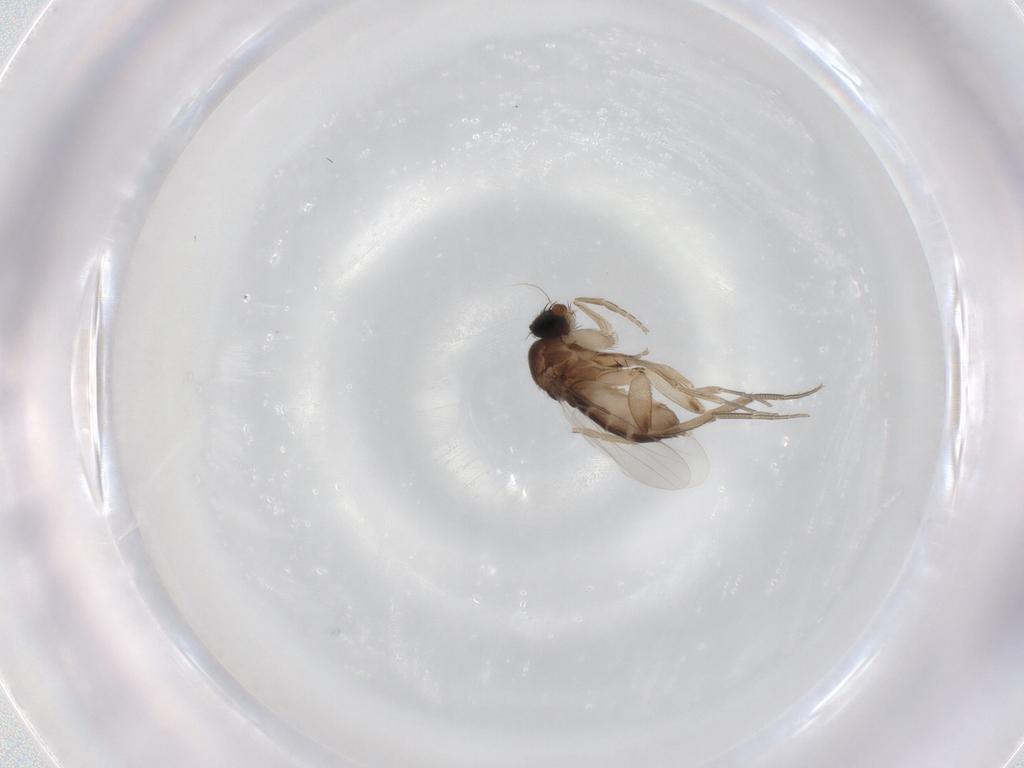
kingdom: Animalia
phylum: Arthropoda
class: Insecta
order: Diptera
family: Phoridae
